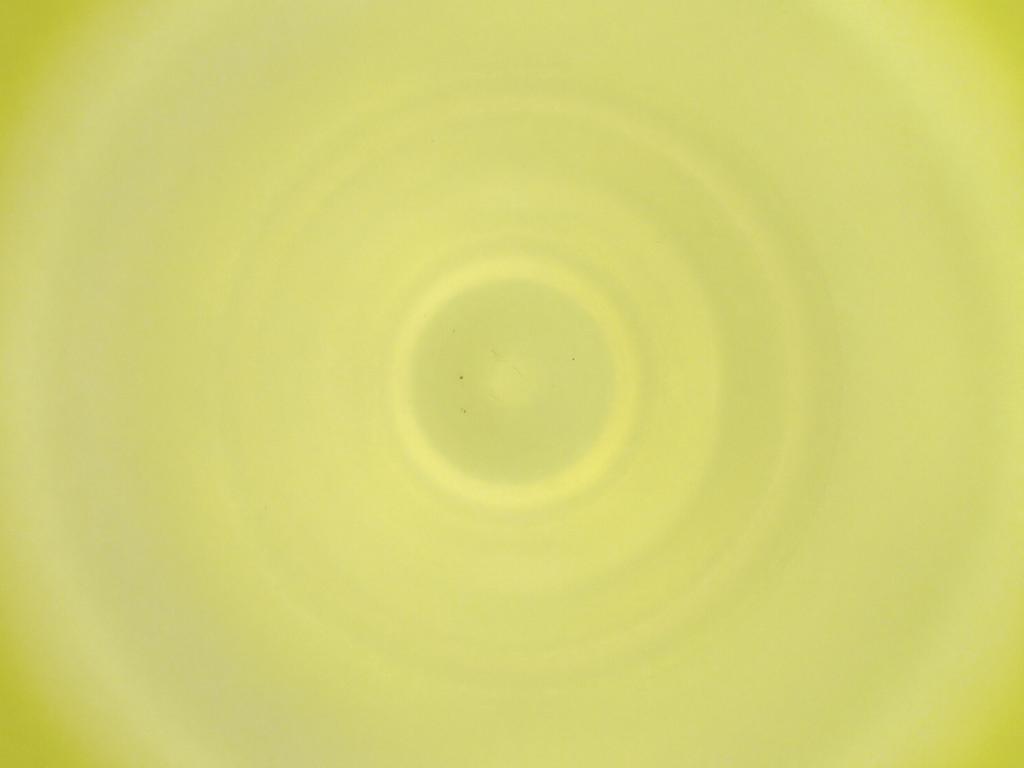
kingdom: Animalia
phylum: Arthropoda
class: Insecta
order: Diptera
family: Cecidomyiidae
